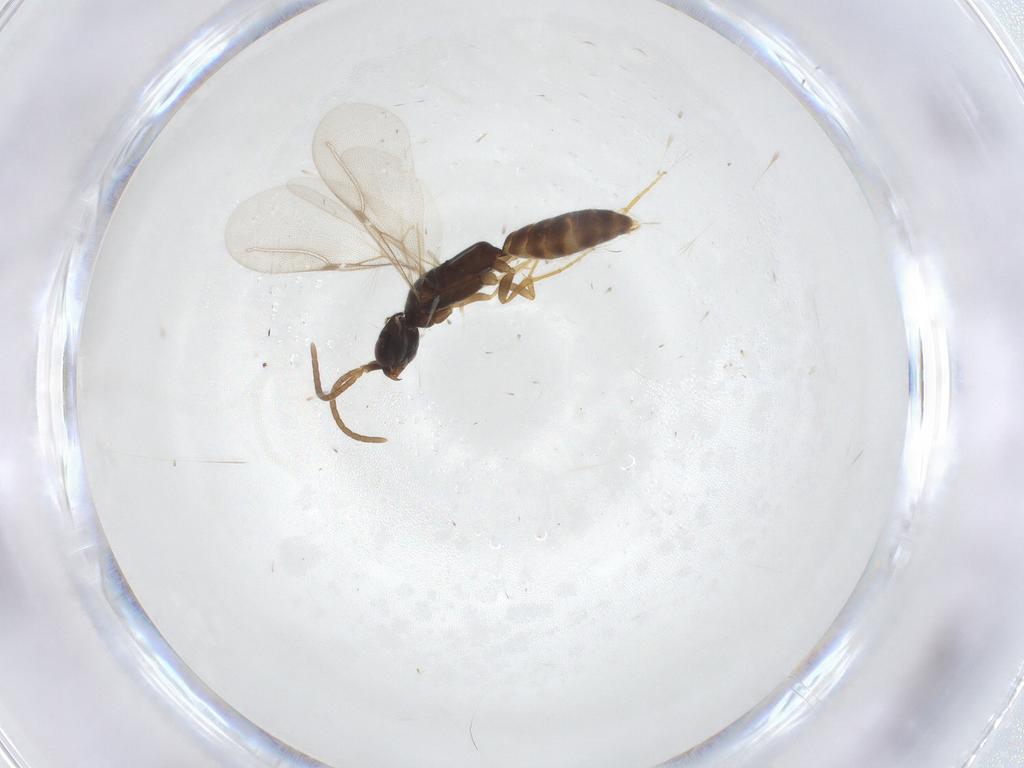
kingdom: Animalia
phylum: Arthropoda
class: Insecta
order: Hymenoptera
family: Bethylidae
